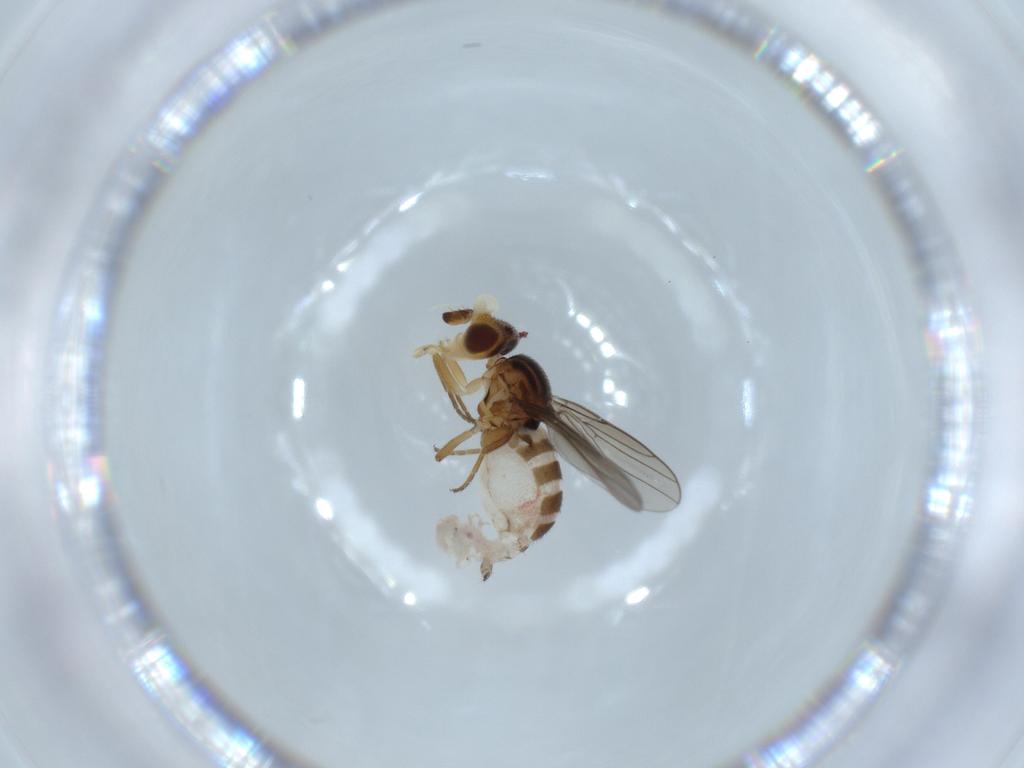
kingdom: Animalia
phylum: Arthropoda
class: Insecta
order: Diptera
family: Chloropidae
